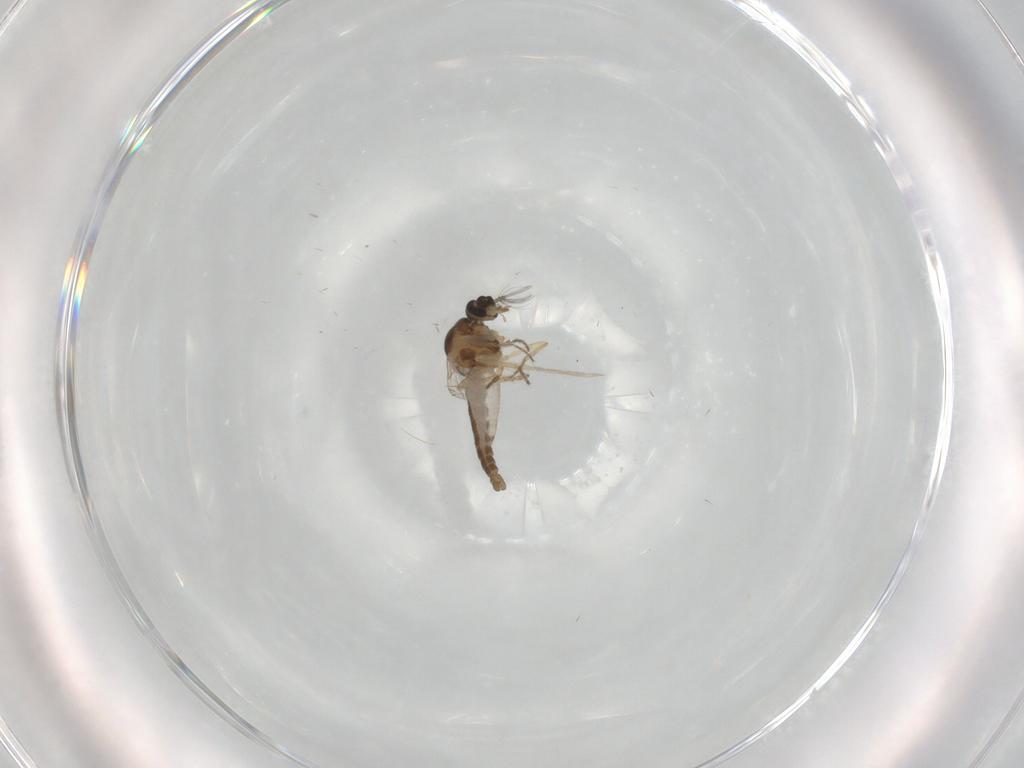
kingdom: Animalia
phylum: Arthropoda
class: Insecta
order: Diptera
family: Ceratopogonidae
